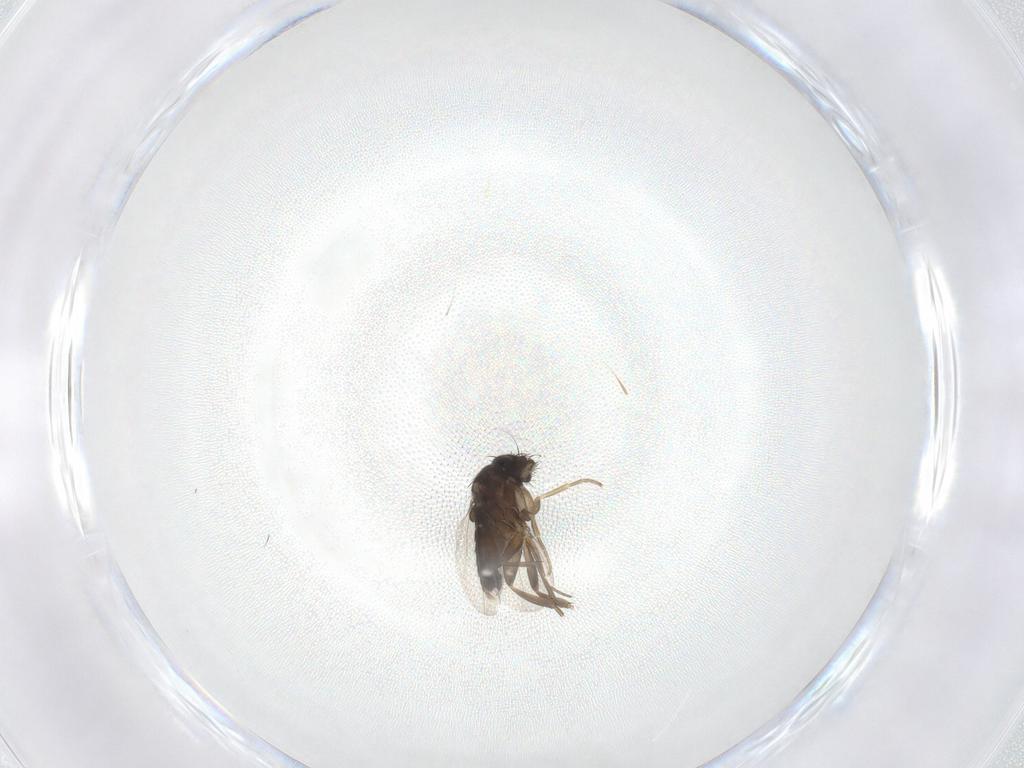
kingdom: Animalia
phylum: Arthropoda
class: Insecta
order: Diptera
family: Phoridae
